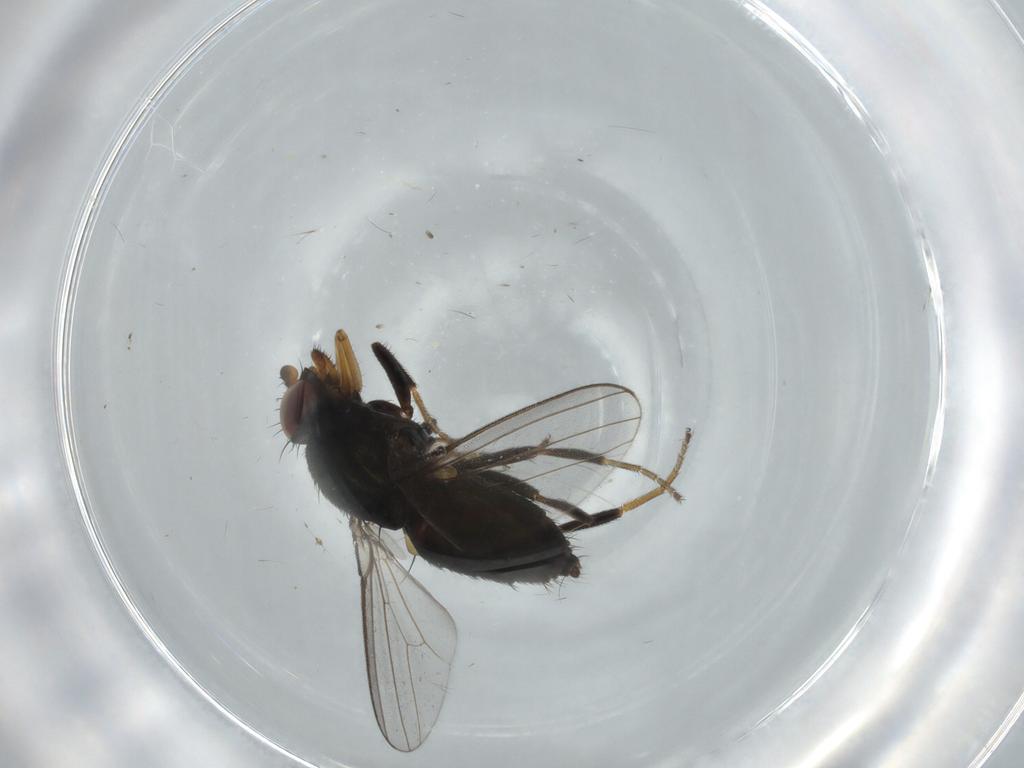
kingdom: Animalia
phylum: Arthropoda
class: Insecta
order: Diptera
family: Milichiidae
